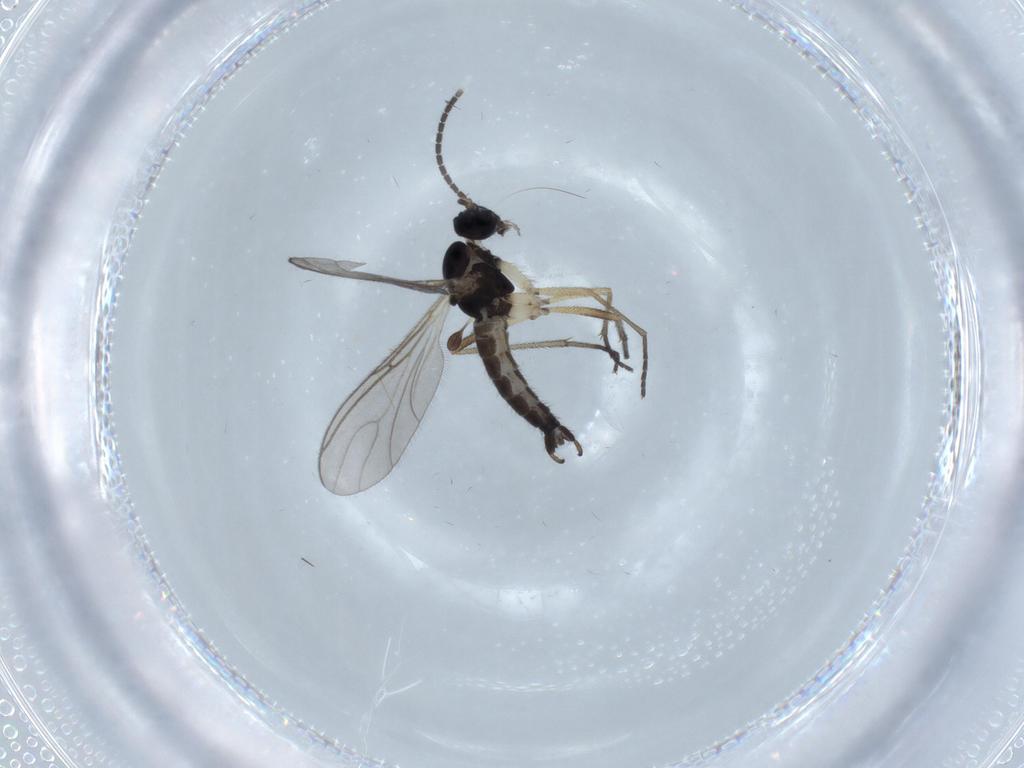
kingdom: Animalia
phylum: Arthropoda
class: Insecta
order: Diptera
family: Sciaridae
